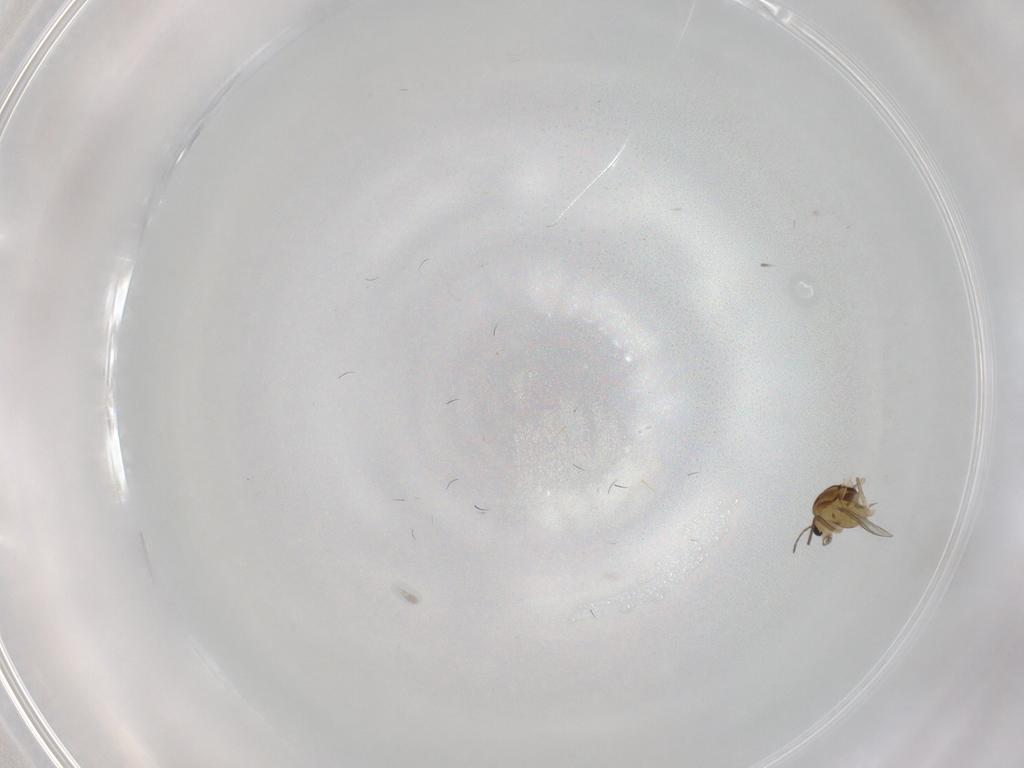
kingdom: Animalia
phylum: Arthropoda
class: Insecta
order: Diptera
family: Chironomidae
